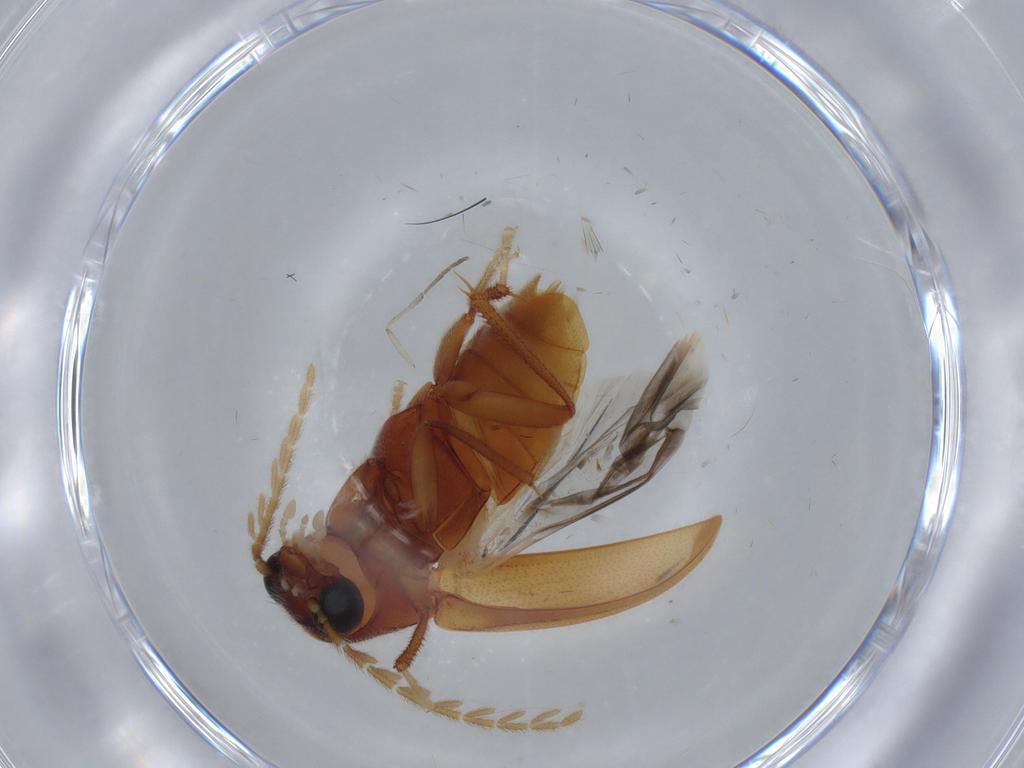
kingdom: Animalia
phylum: Arthropoda
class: Insecta
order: Coleoptera
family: Ptilodactylidae
